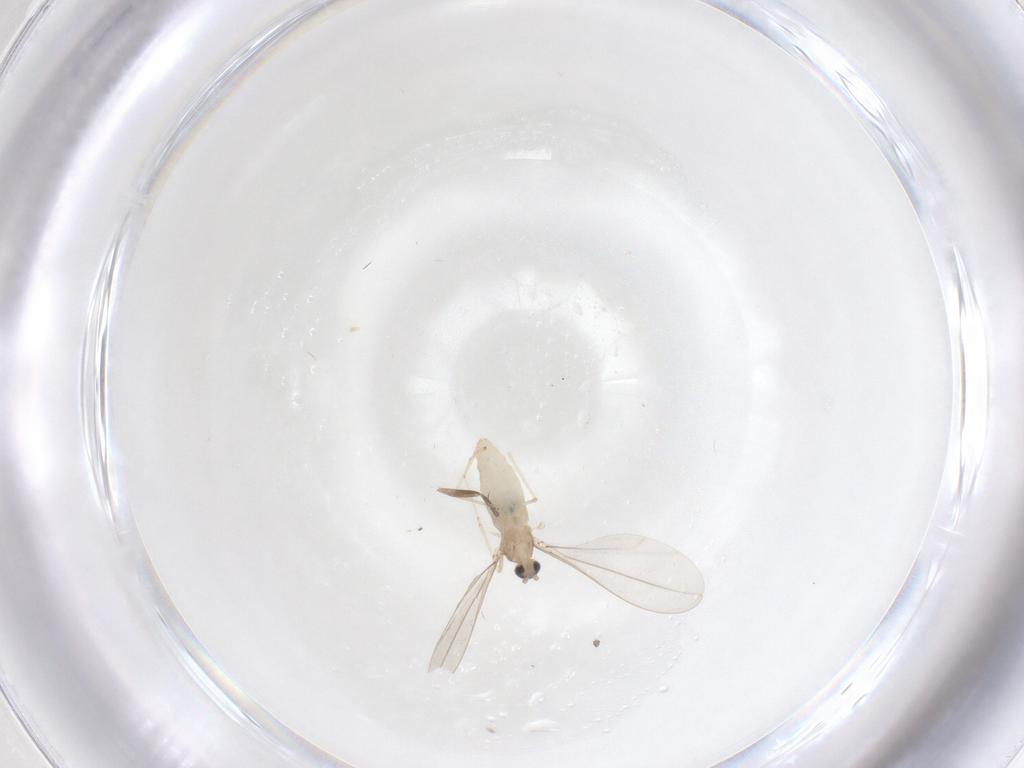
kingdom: Animalia
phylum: Arthropoda
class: Insecta
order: Diptera
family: Cecidomyiidae
